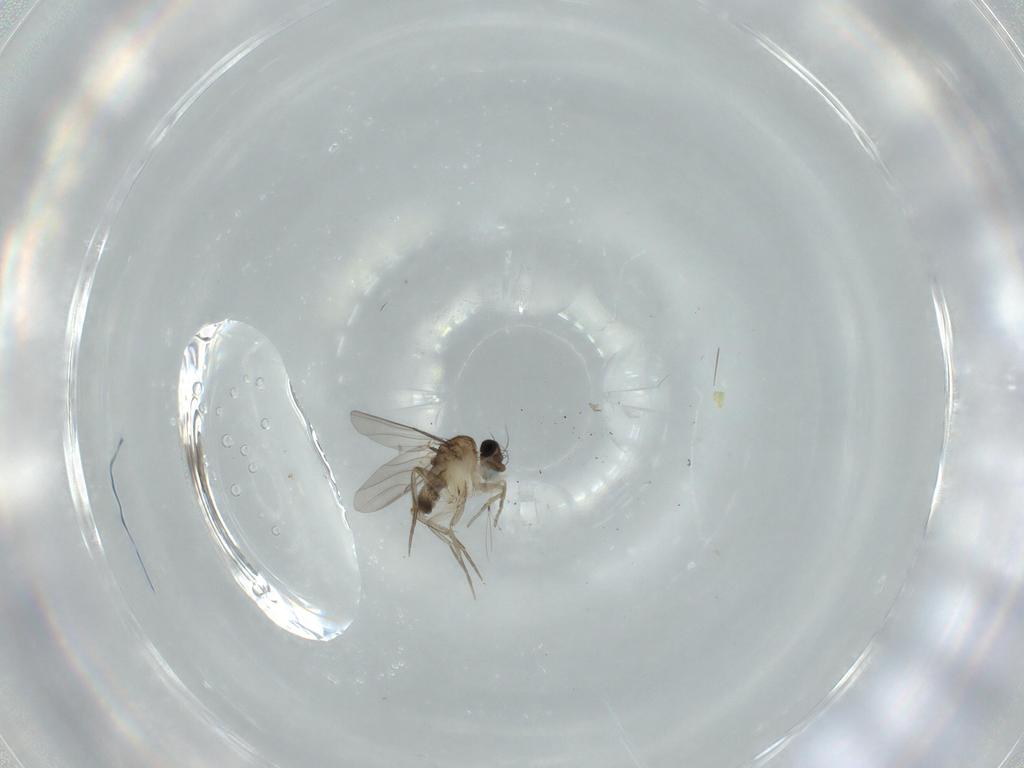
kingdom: Animalia
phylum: Arthropoda
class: Insecta
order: Diptera
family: Phoridae
